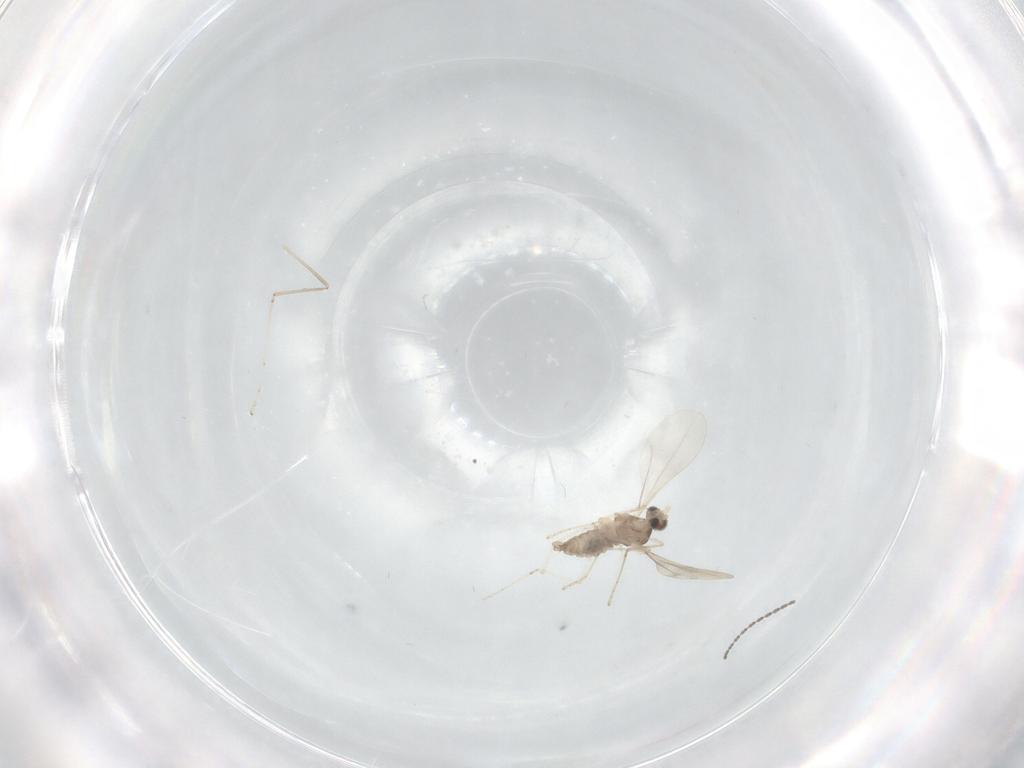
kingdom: Animalia
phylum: Arthropoda
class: Insecta
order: Diptera
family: Cecidomyiidae
